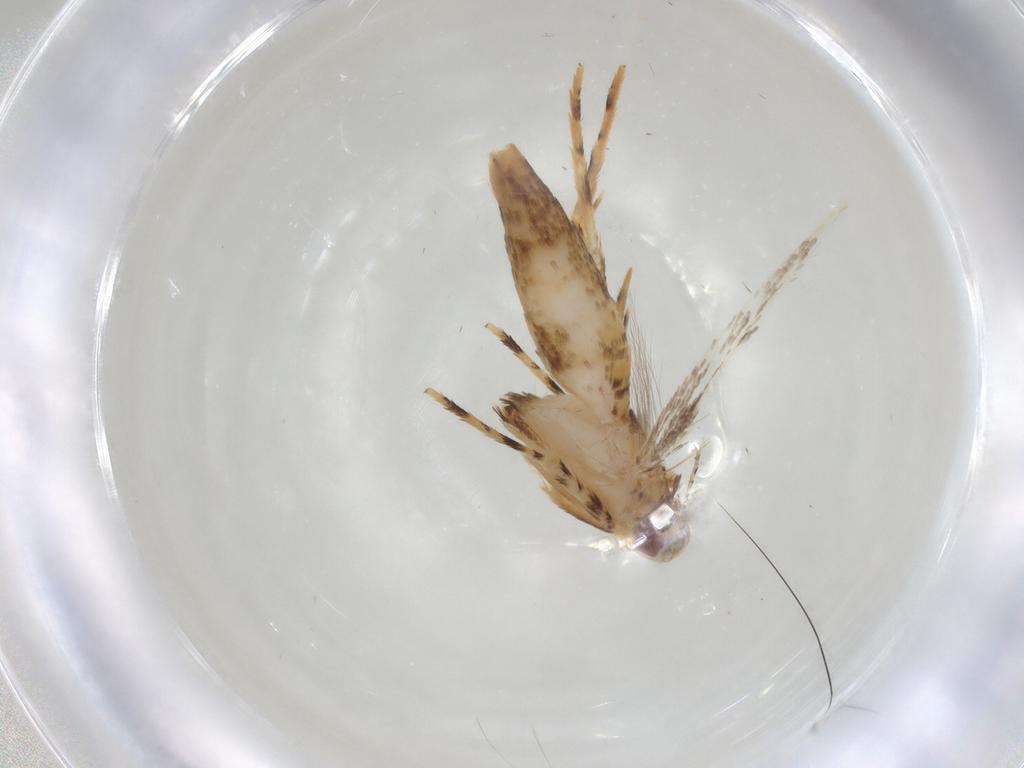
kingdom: Animalia
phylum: Arthropoda
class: Insecta
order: Lepidoptera
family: Cosmopterigidae
